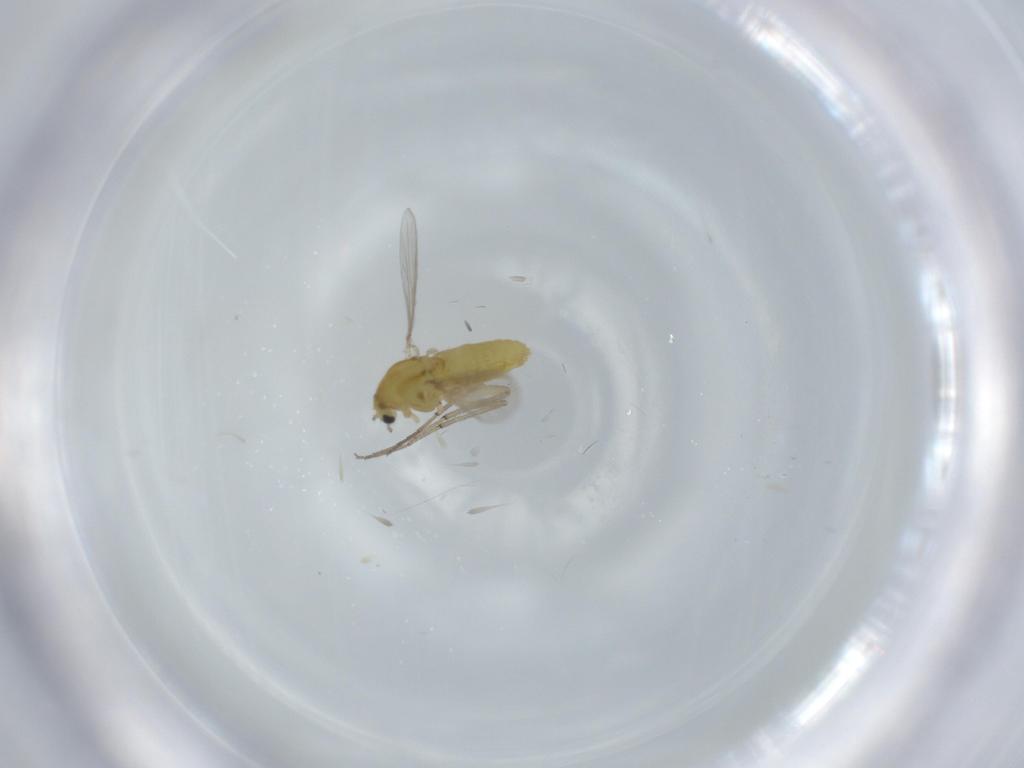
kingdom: Animalia
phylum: Arthropoda
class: Insecta
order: Diptera
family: Chironomidae
